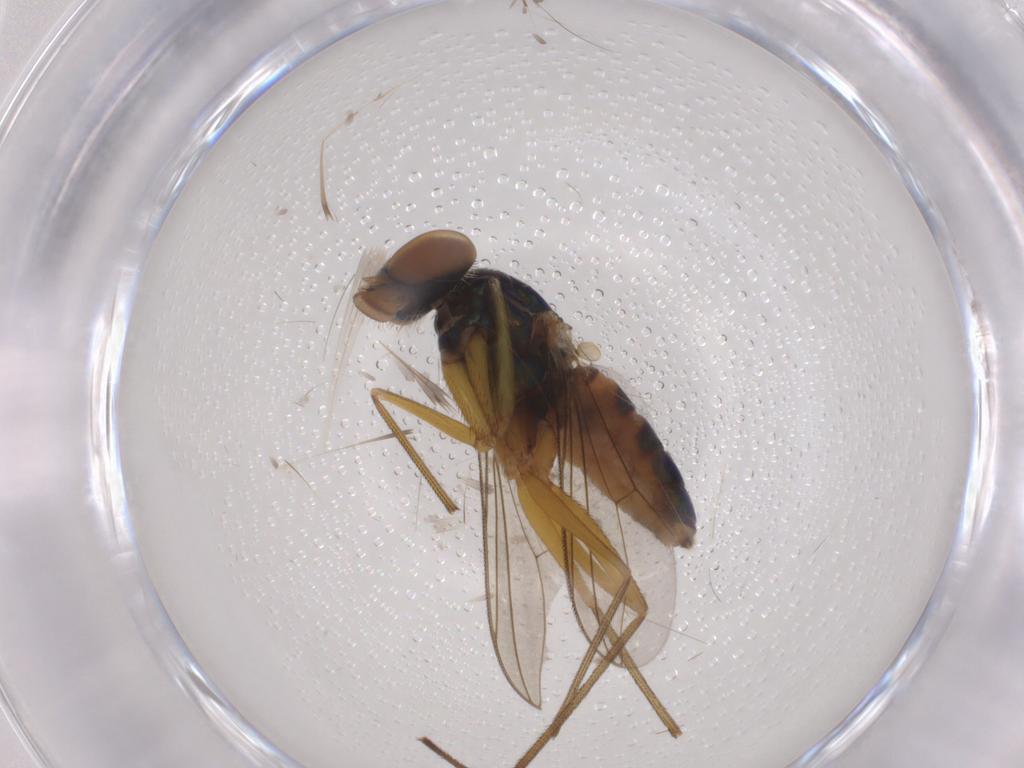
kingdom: Animalia
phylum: Arthropoda
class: Insecta
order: Diptera
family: Cecidomyiidae
